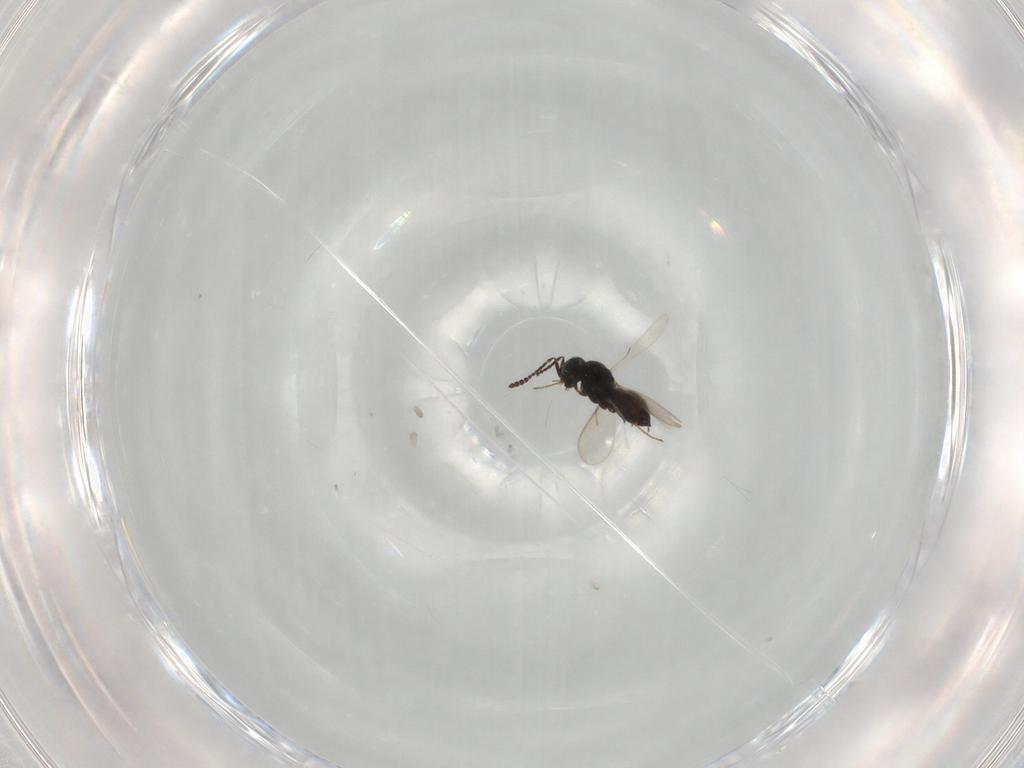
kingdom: Animalia
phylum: Arthropoda
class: Insecta
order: Hymenoptera
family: Scelionidae
